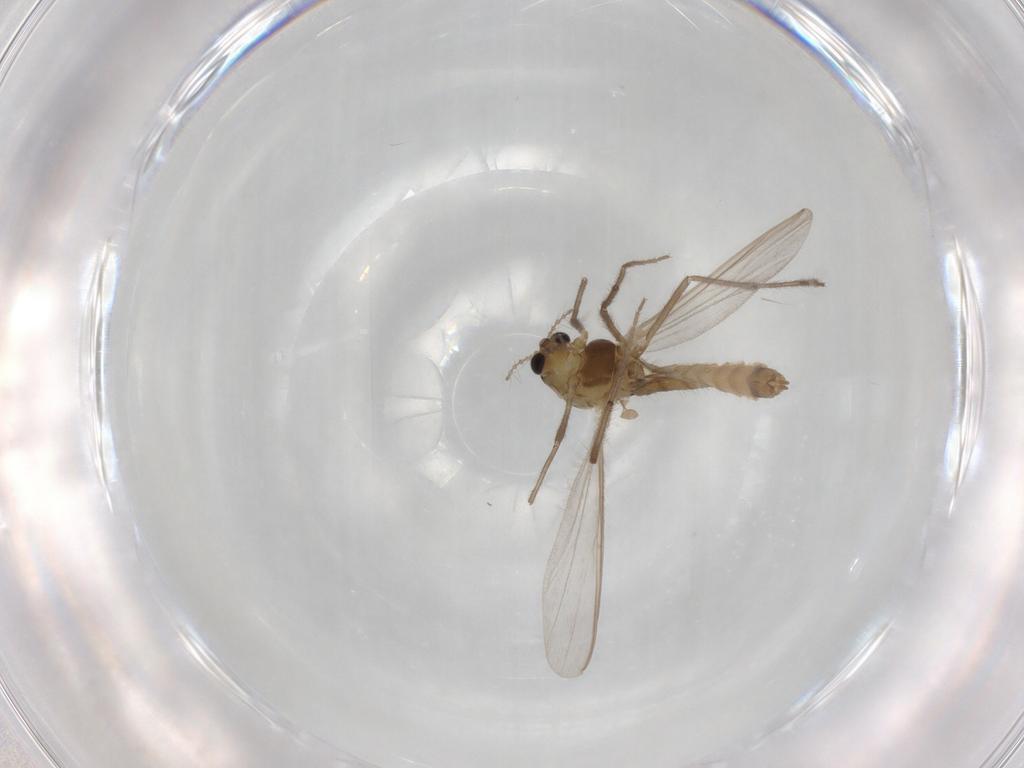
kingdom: Animalia
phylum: Arthropoda
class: Insecta
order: Diptera
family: Chironomidae
